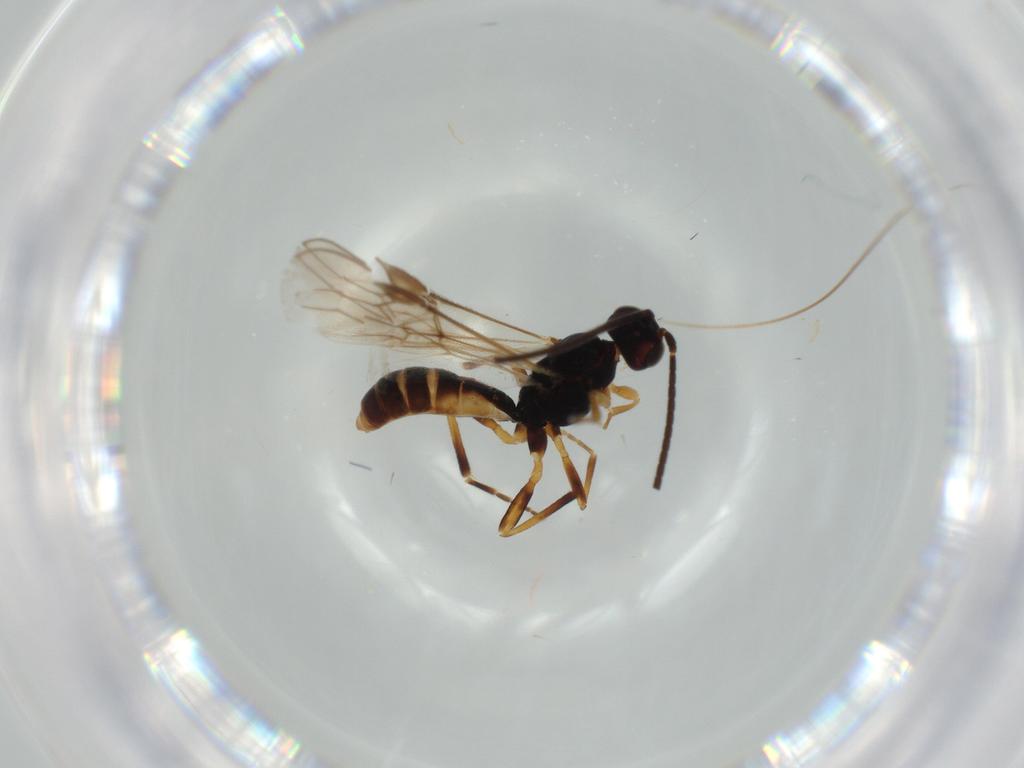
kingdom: Animalia
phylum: Arthropoda
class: Insecta
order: Hymenoptera
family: Braconidae
